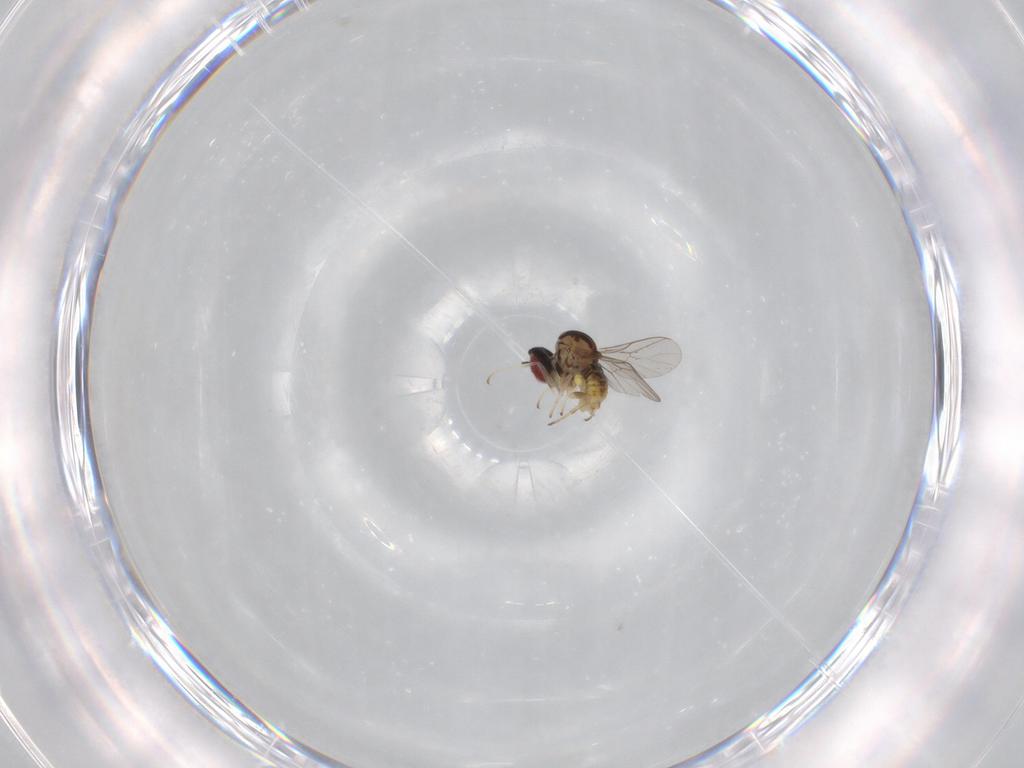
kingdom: Animalia
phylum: Arthropoda
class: Insecta
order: Diptera
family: Bombyliidae
